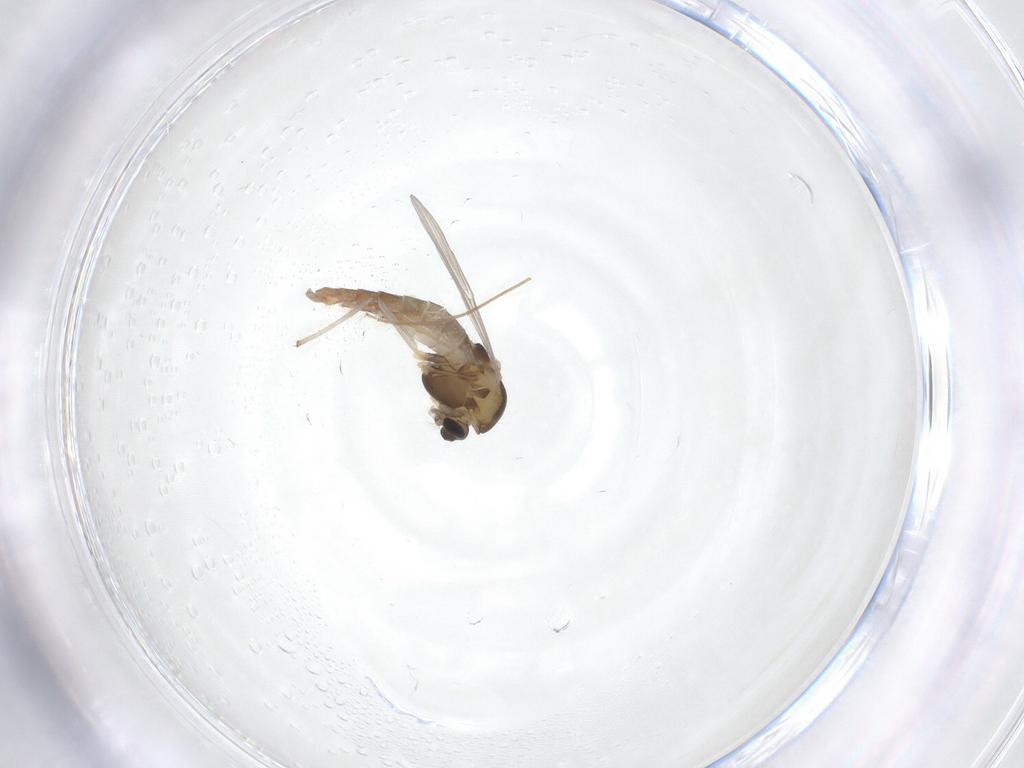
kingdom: Animalia
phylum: Arthropoda
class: Insecta
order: Diptera
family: Chironomidae
